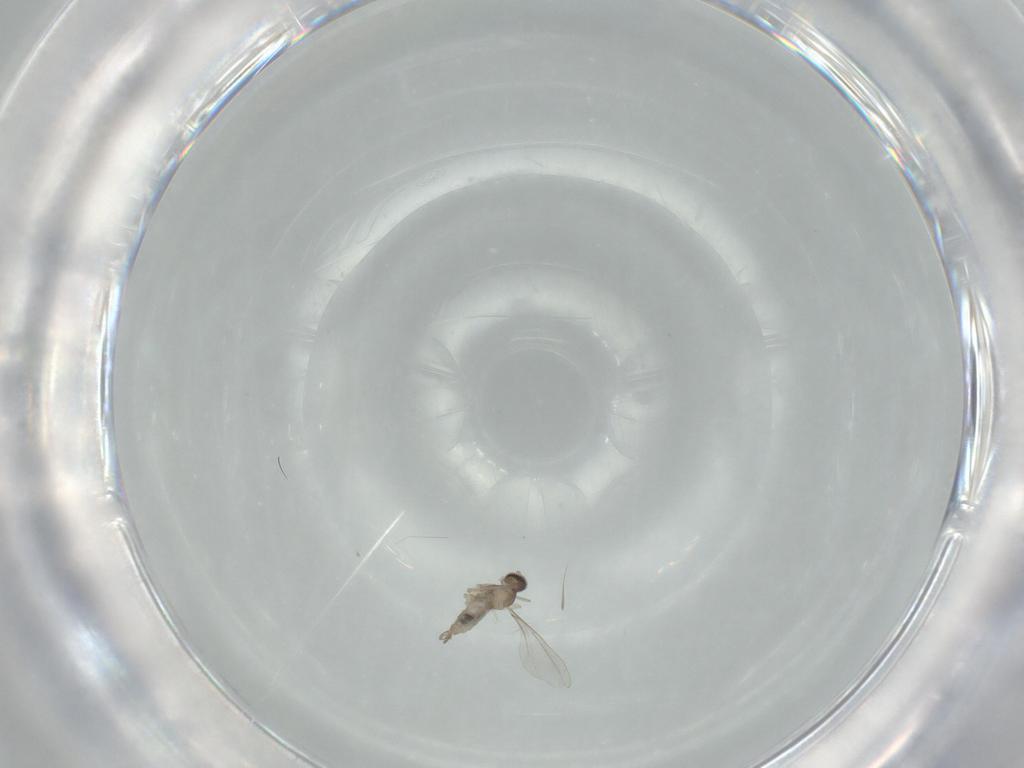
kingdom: Animalia
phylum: Arthropoda
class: Insecta
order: Diptera
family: Cecidomyiidae
